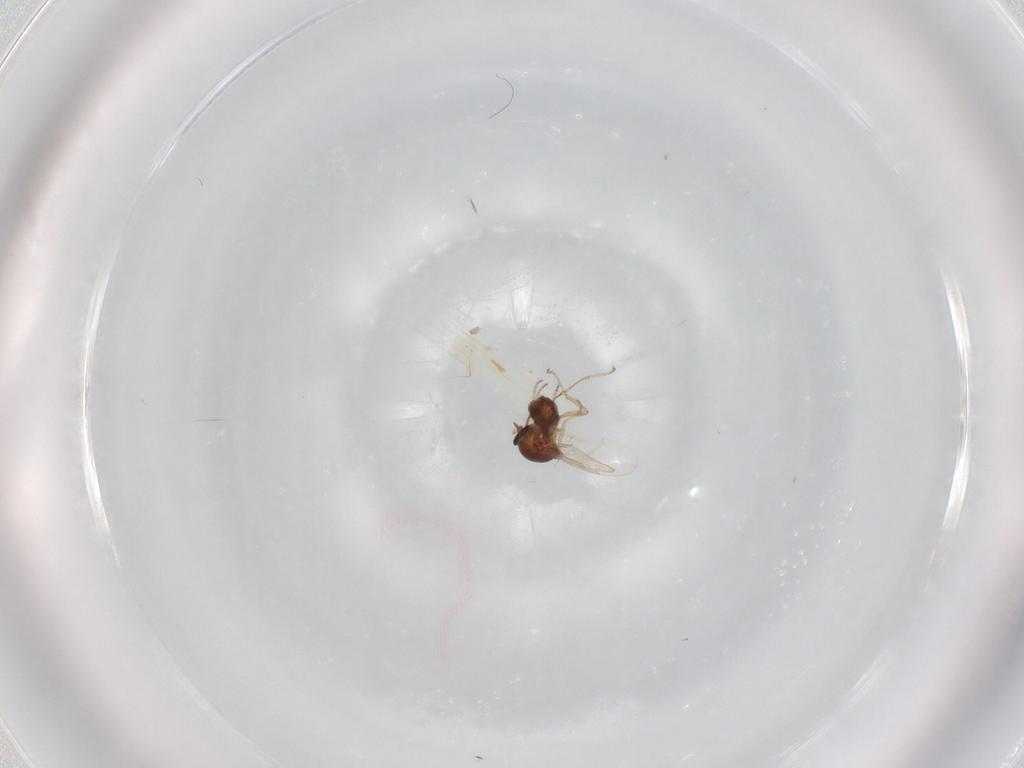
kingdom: Animalia
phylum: Arthropoda
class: Insecta
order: Diptera
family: Ceratopogonidae
